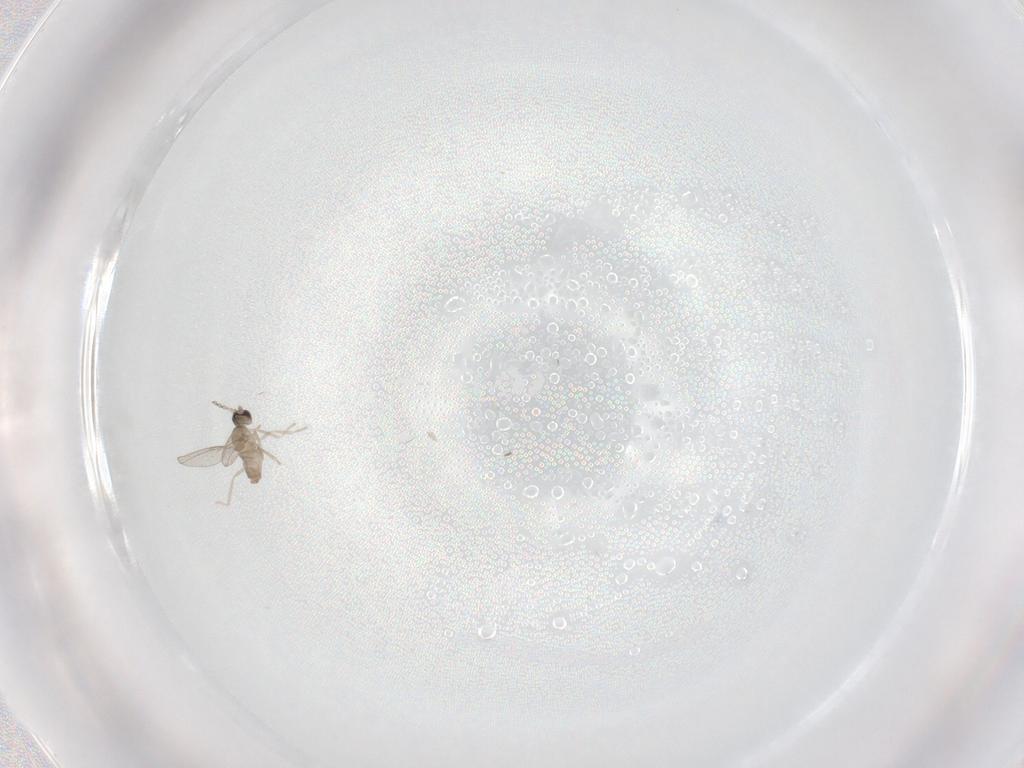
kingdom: Animalia
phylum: Arthropoda
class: Insecta
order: Diptera
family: Cecidomyiidae
